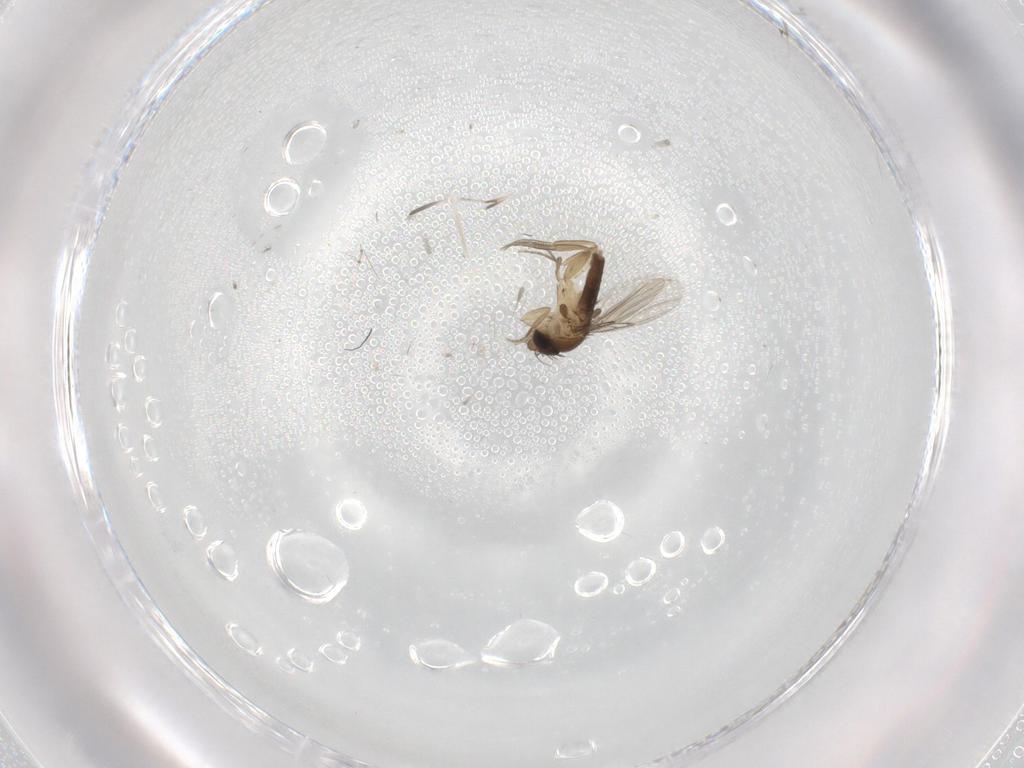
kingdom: Animalia
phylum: Arthropoda
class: Insecta
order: Diptera
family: Phoridae
